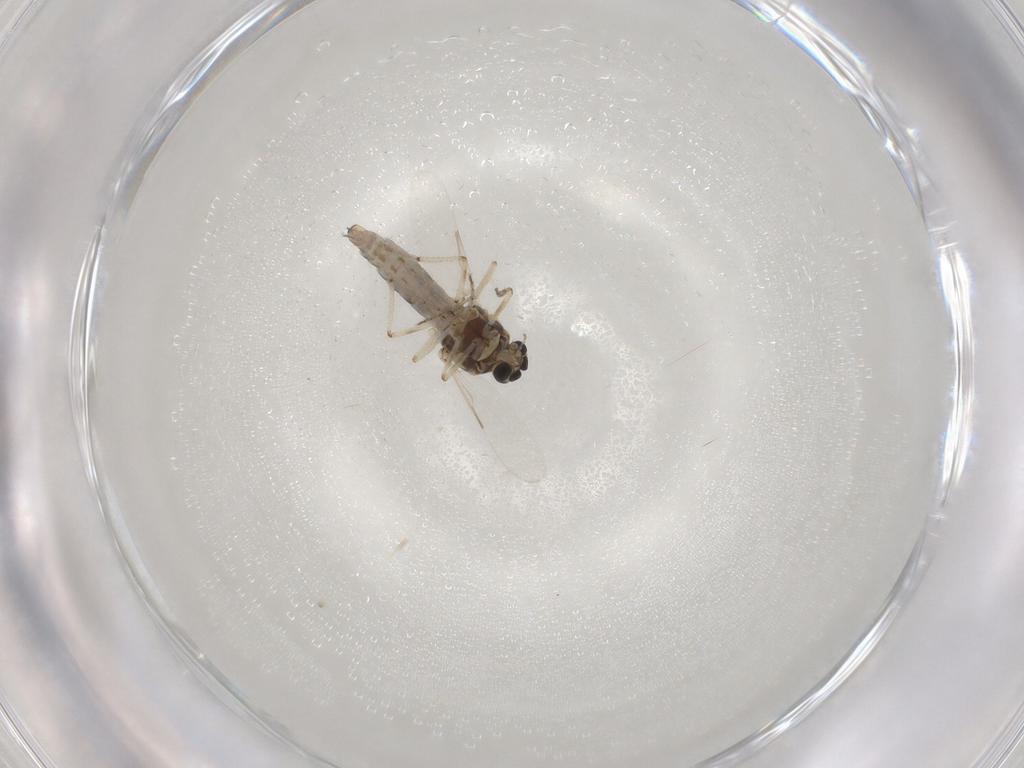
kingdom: Animalia
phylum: Arthropoda
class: Insecta
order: Diptera
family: Ceratopogonidae
